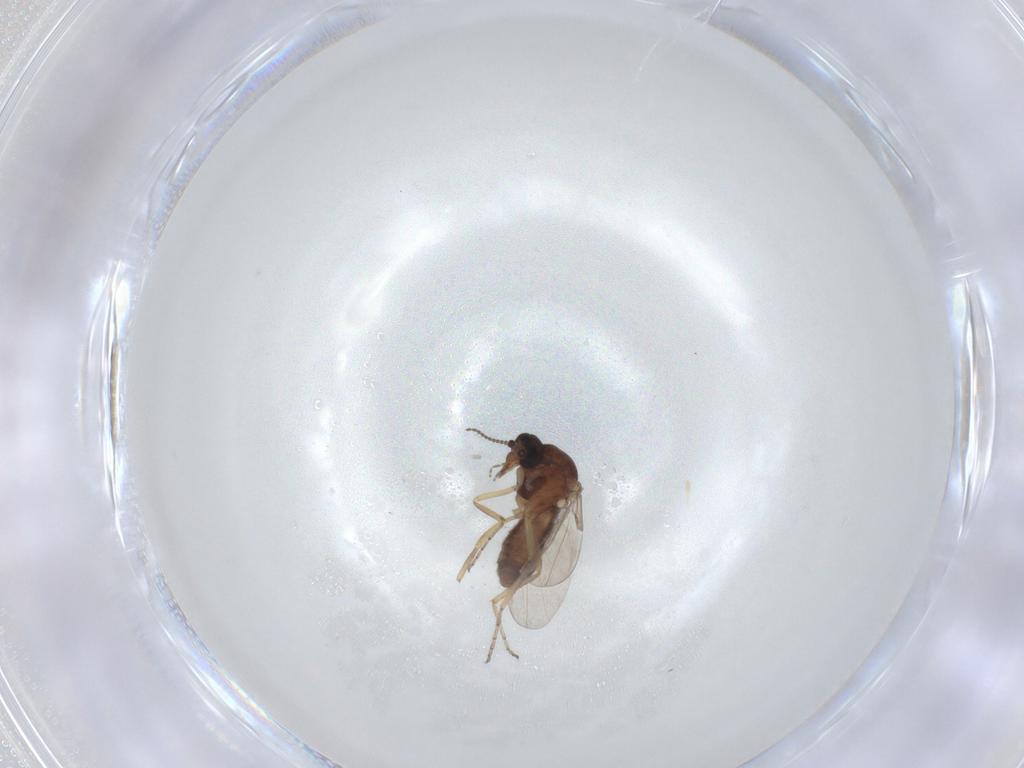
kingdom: Animalia
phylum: Arthropoda
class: Insecta
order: Diptera
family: Ceratopogonidae
